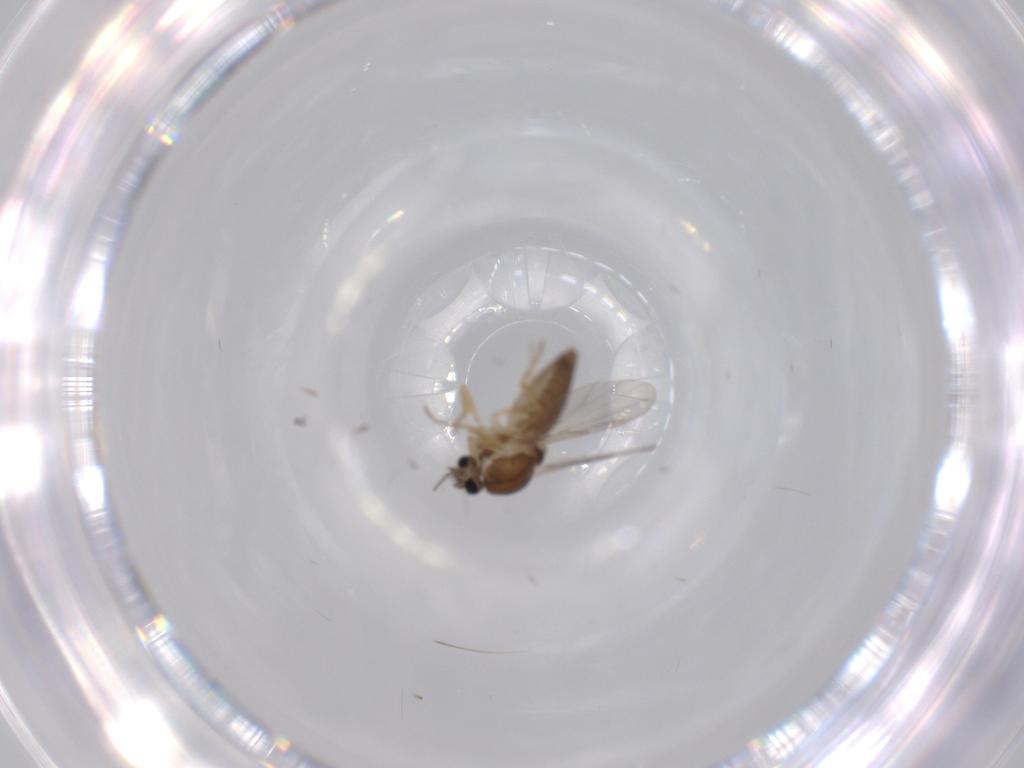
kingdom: Animalia
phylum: Arthropoda
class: Insecta
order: Diptera
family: Ceratopogonidae
